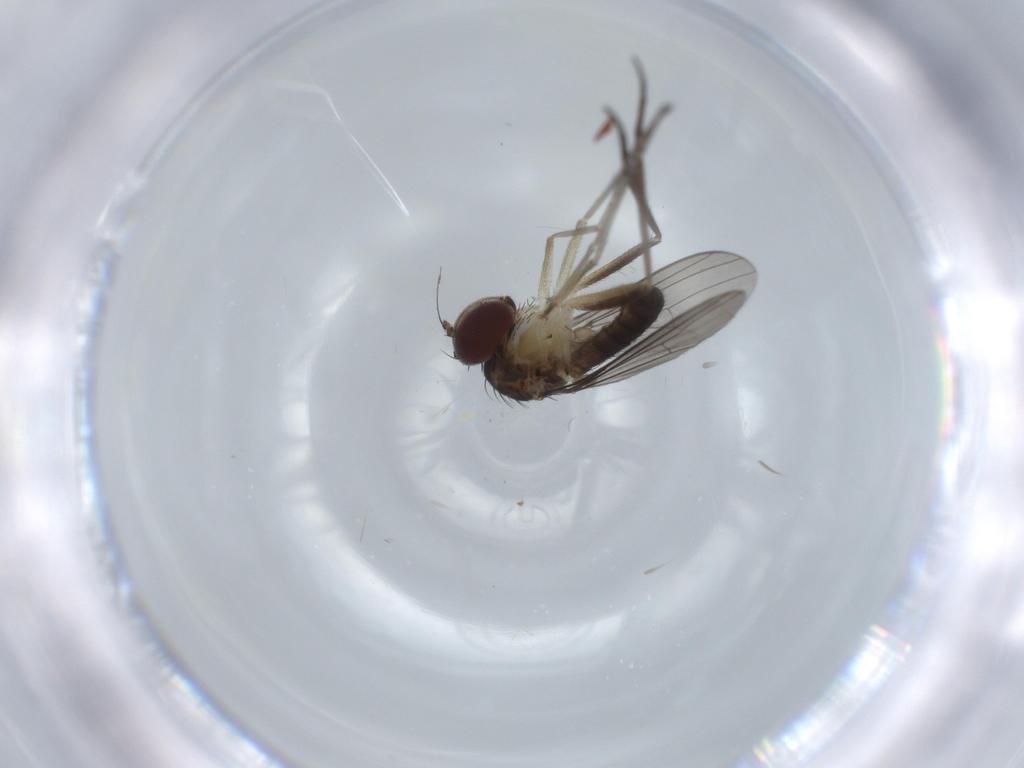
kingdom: Animalia
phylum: Arthropoda
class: Insecta
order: Diptera
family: Dolichopodidae
